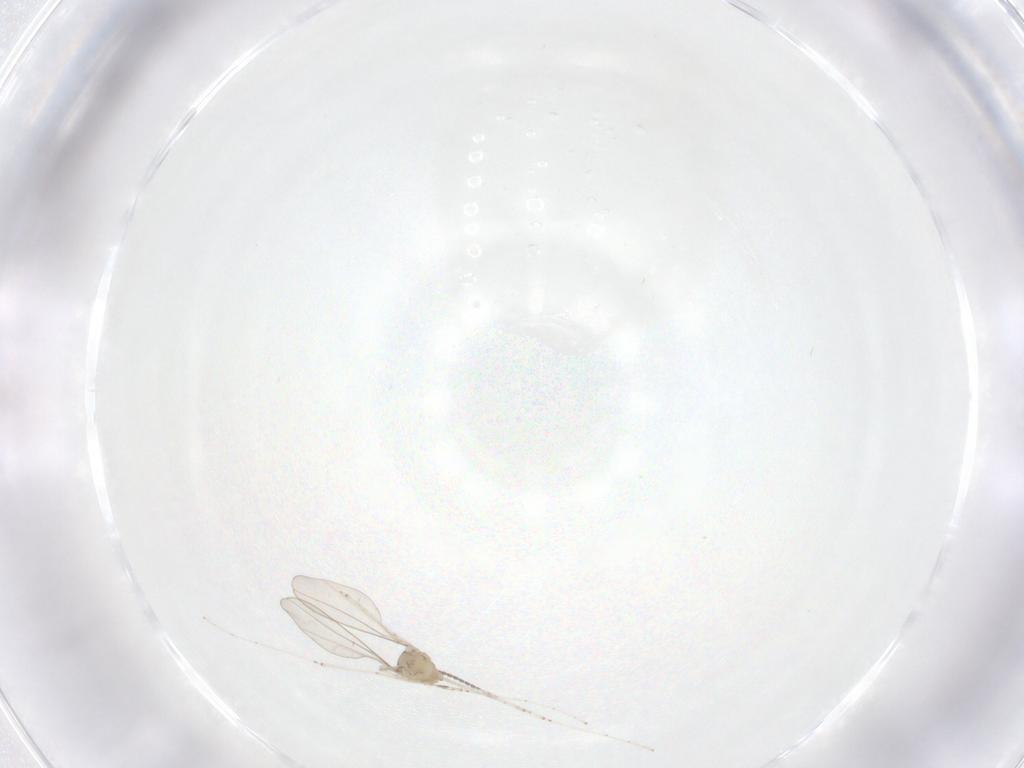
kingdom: Animalia
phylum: Arthropoda
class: Insecta
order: Diptera
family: Cecidomyiidae
